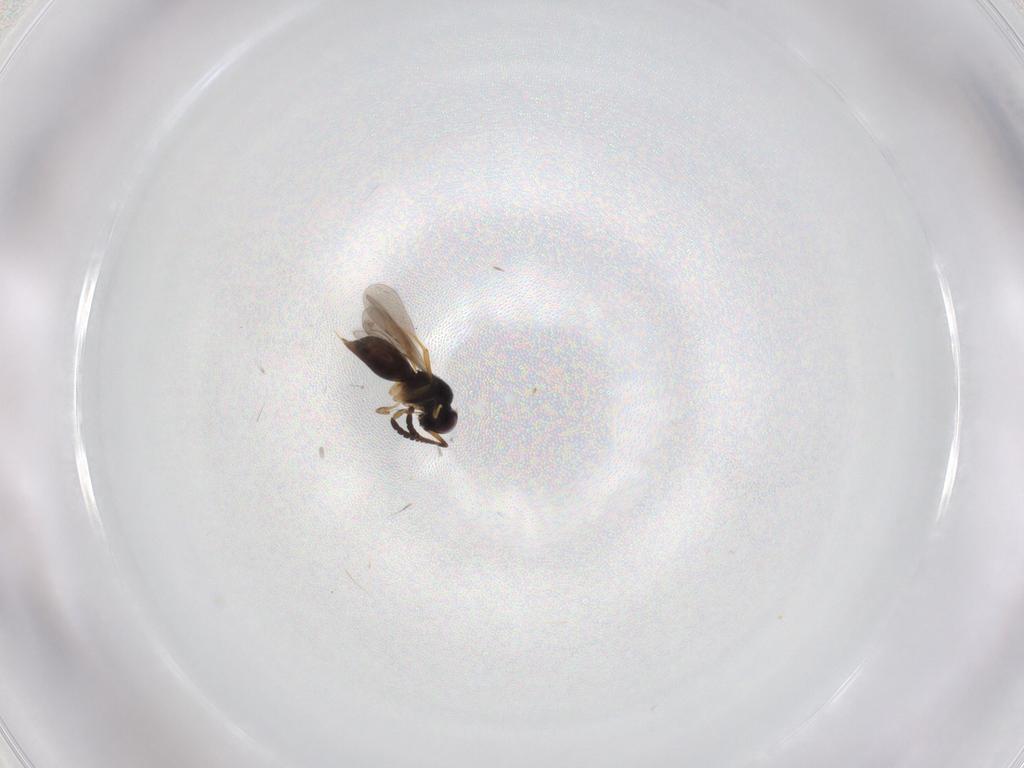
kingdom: Animalia
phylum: Arthropoda
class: Insecta
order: Hymenoptera
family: Ceraphronidae
